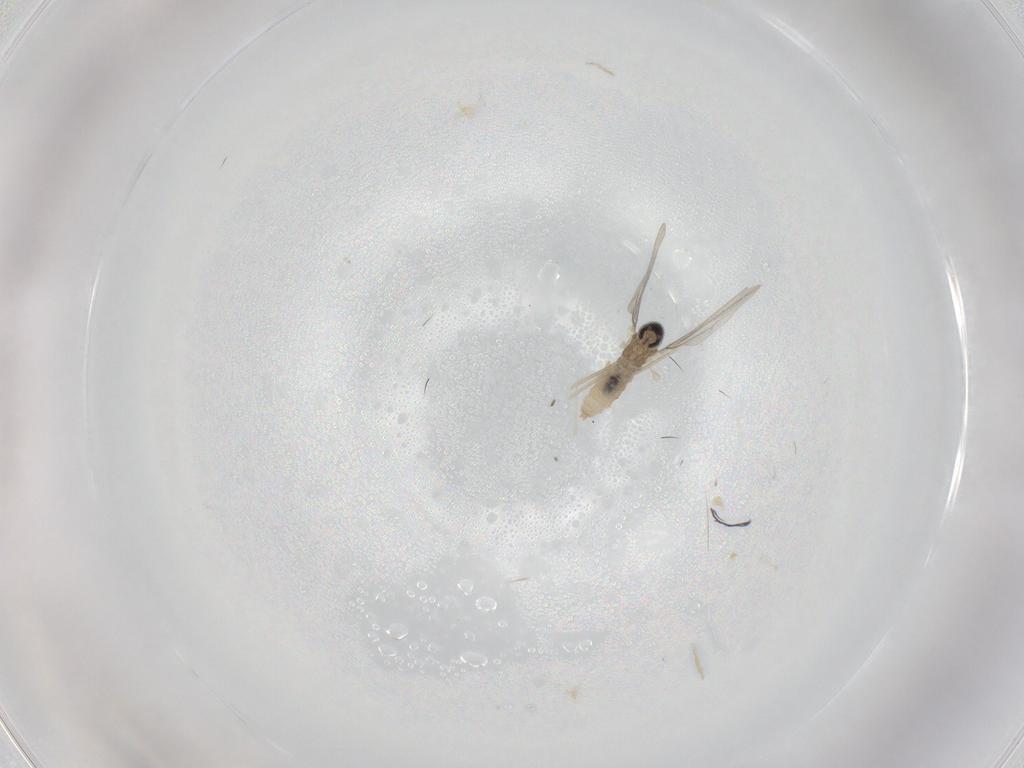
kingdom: Animalia
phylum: Arthropoda
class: Insecta
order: Diptera
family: Cecidomyiidae
